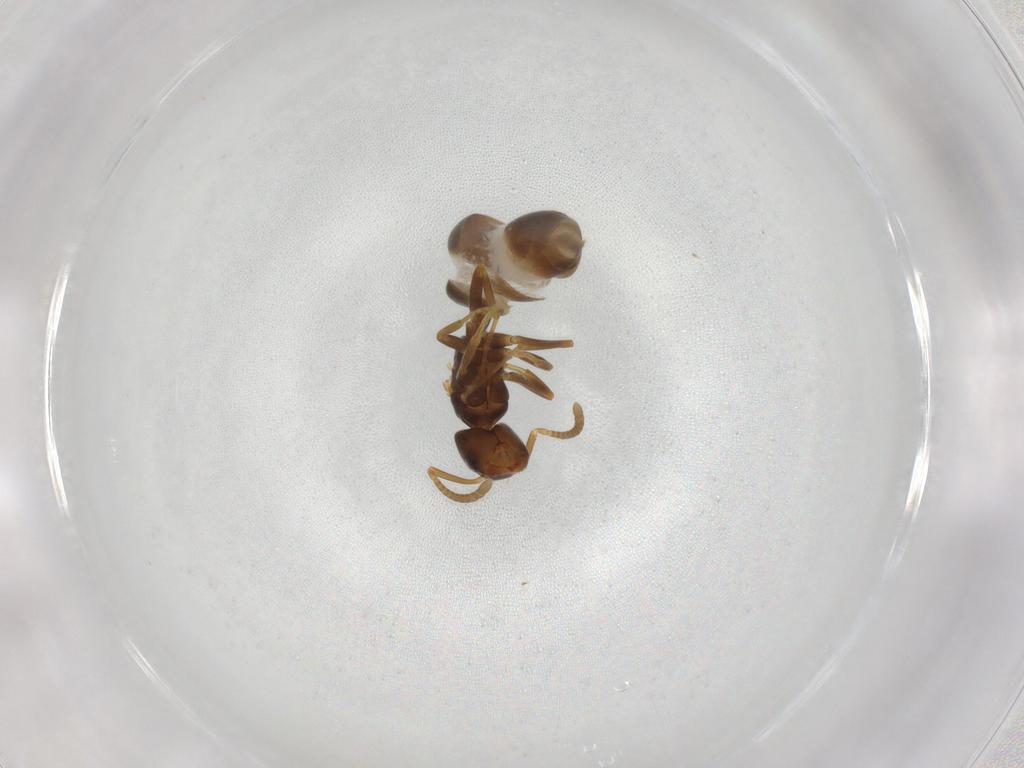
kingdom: Animalia
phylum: Arthropoda
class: Insecta
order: Hymenoptera
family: Formicidae
